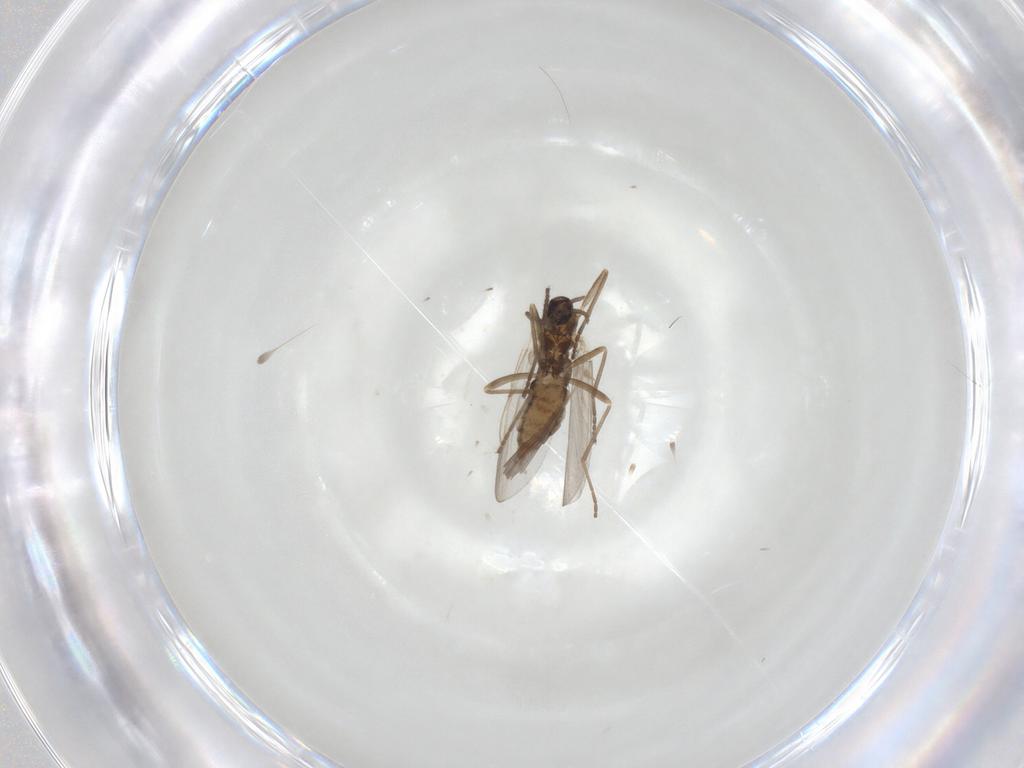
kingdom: Animalia
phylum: Arthropoda
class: Insecta
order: Diptera
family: Cecidomyiidae
